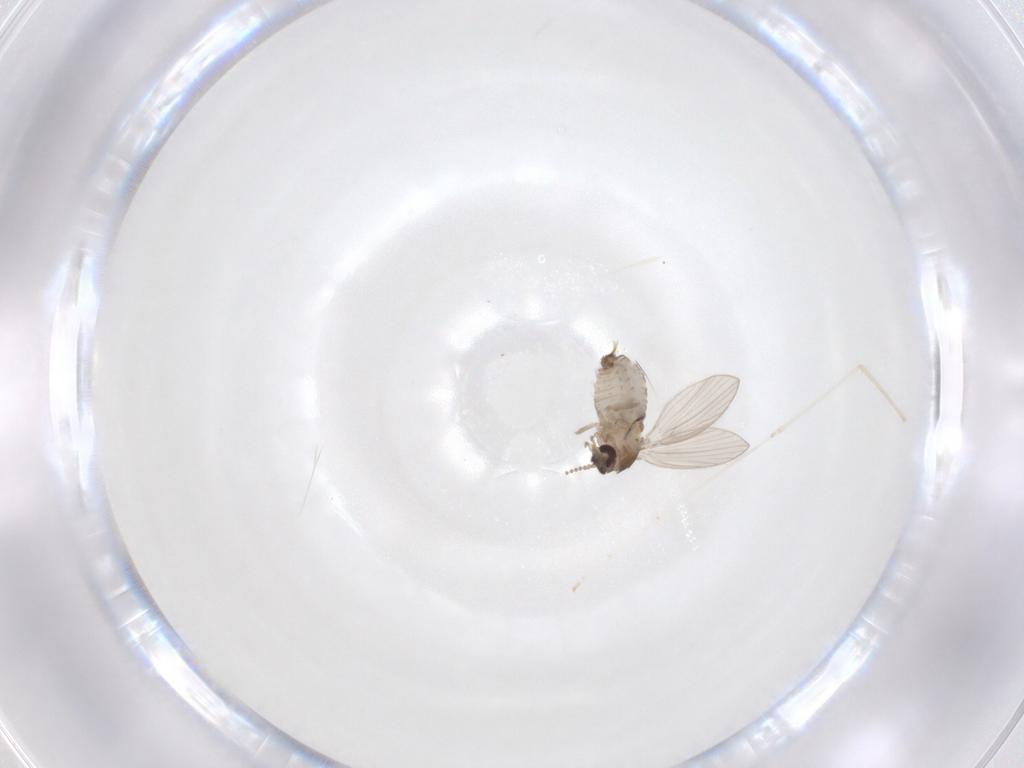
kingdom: Animalia
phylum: Arthropoda
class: Insecta
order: Diptera
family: Psychodidae
